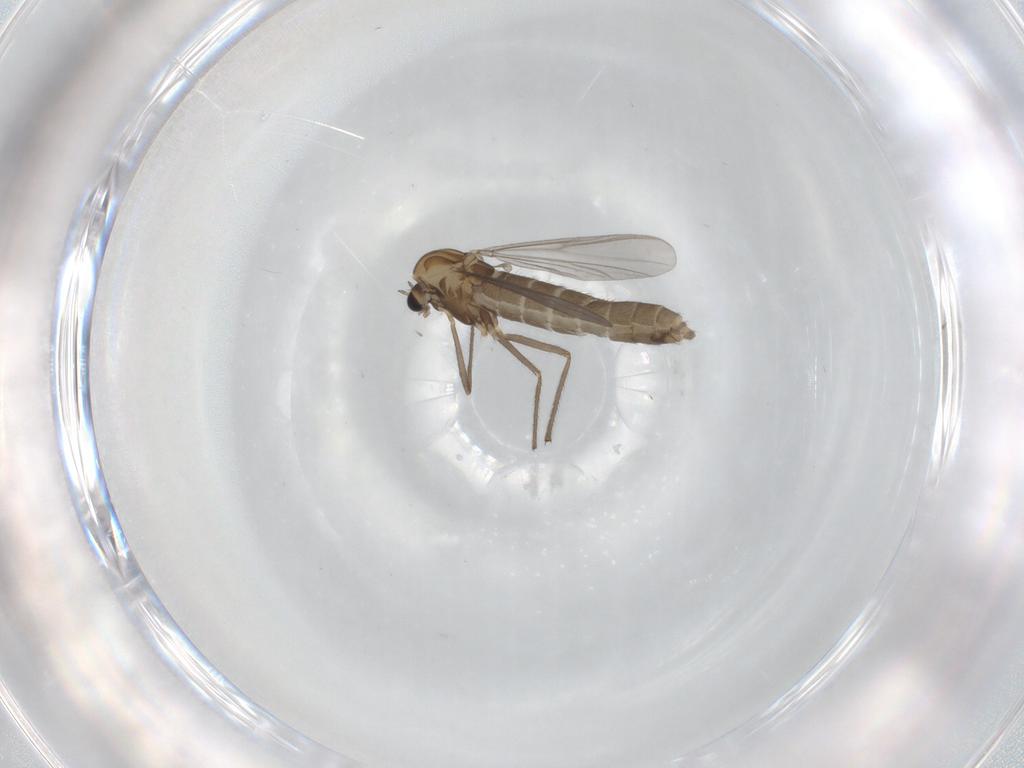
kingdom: Animalia
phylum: Arthropoda
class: Insecta
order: Diptera
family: Chironomidae
